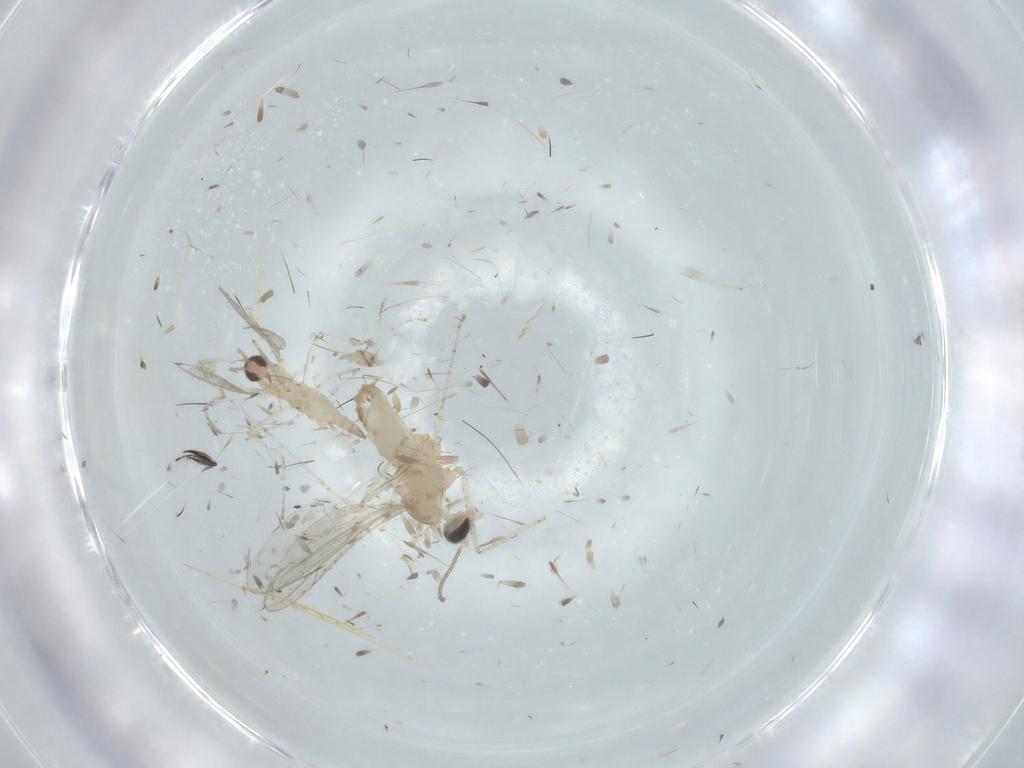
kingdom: Animalia
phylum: Arthropoda
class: Insecta
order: Diptera
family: Cecidomyiidae
